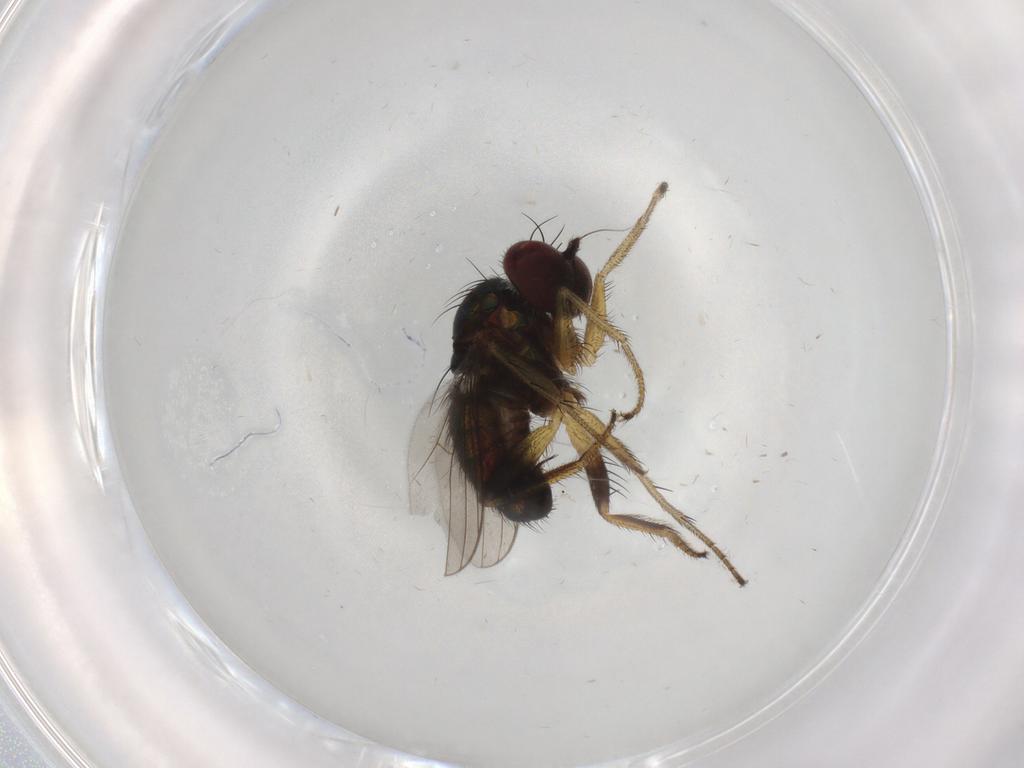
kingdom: Animalia
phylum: Arthropoda
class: Insecta
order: Diptera
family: Dolichopodidae
